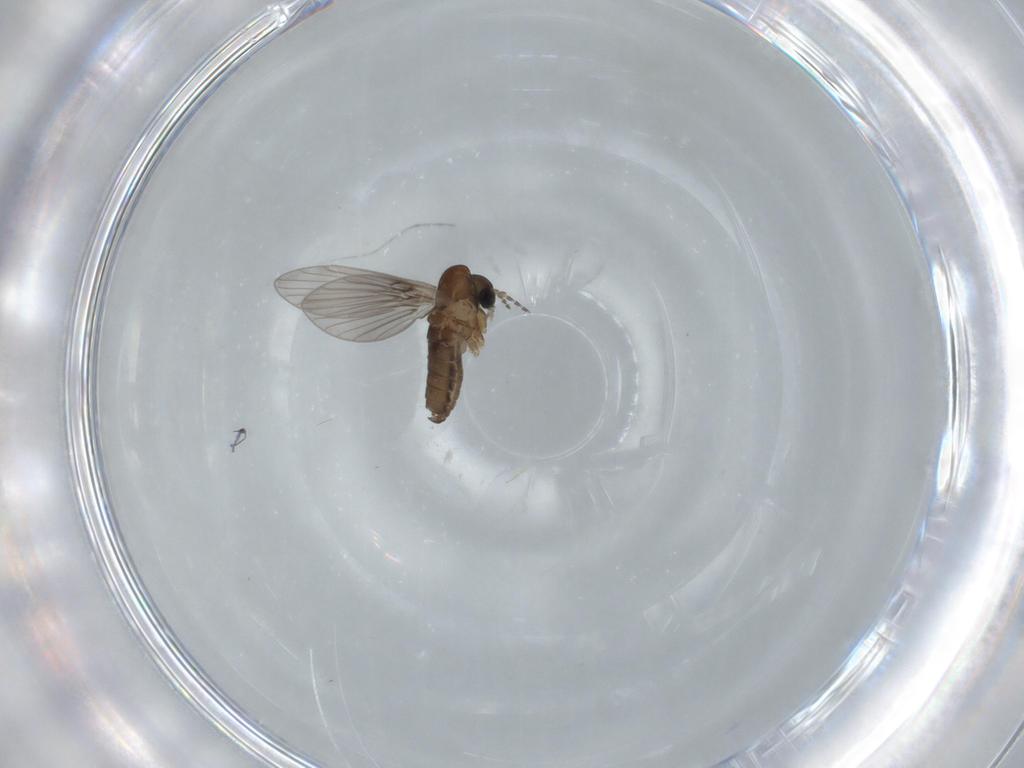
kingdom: Animalia
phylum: Arthropoda
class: Insecta
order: Diptera
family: Psychodidae
